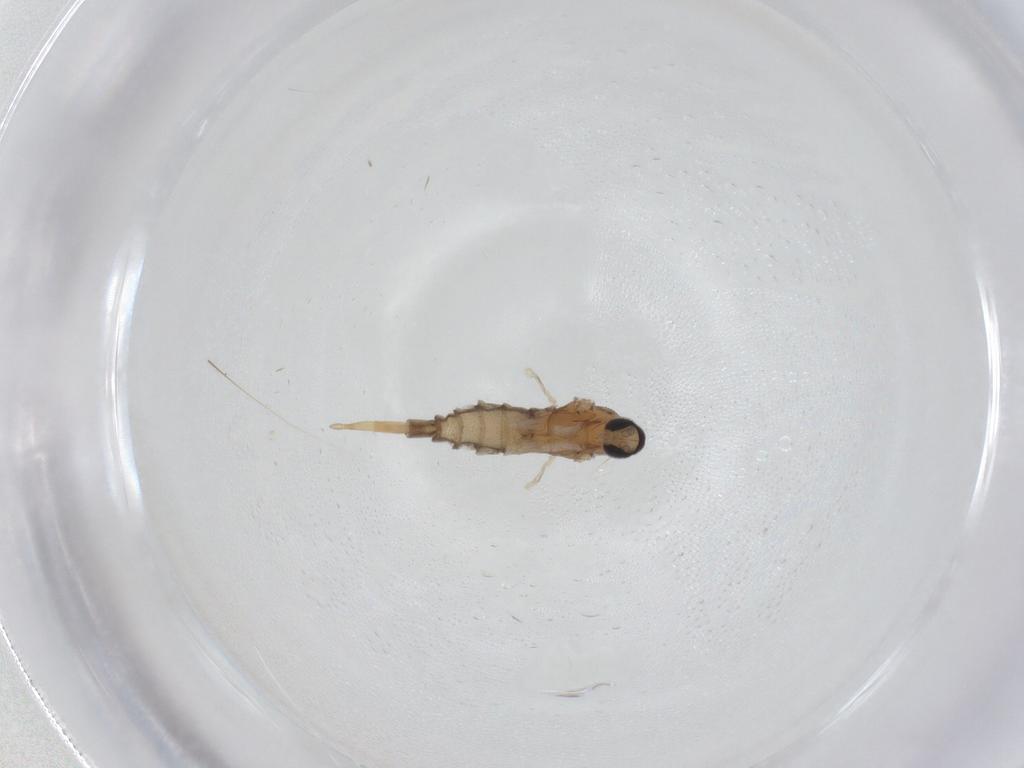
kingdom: Animalia
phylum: Arthropoda
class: Insecta
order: Diptera
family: Cecidomyiidae
